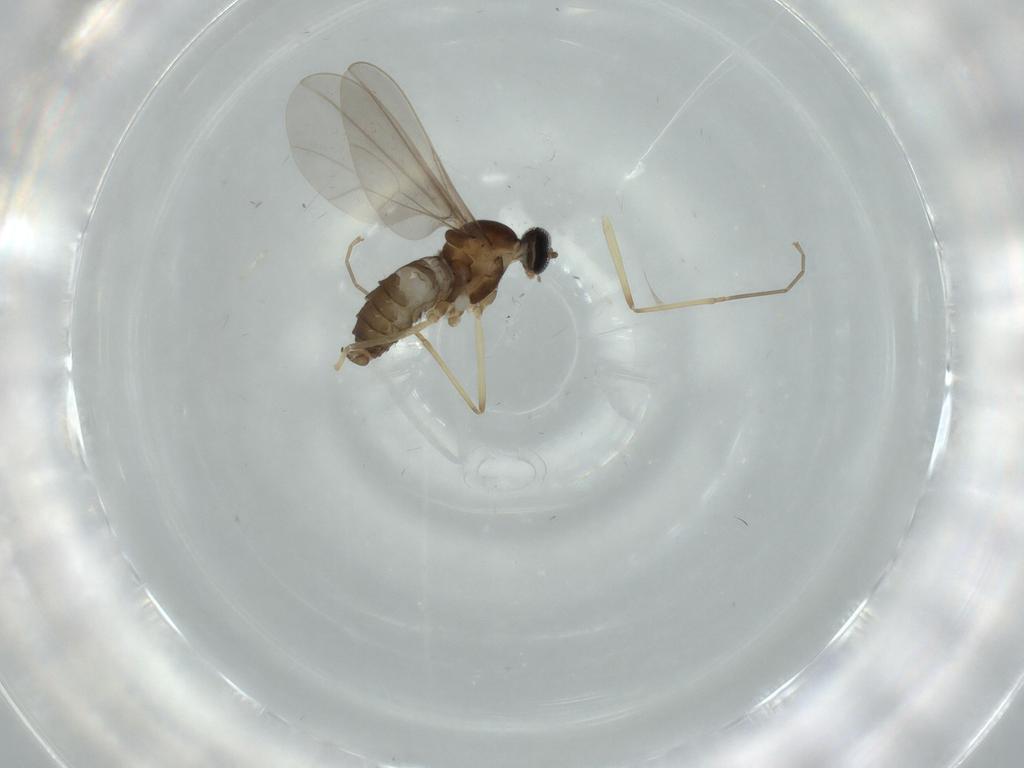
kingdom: Animalia
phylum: Arthropoda
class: Insecta
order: Diptera
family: Cecidomyiidae
